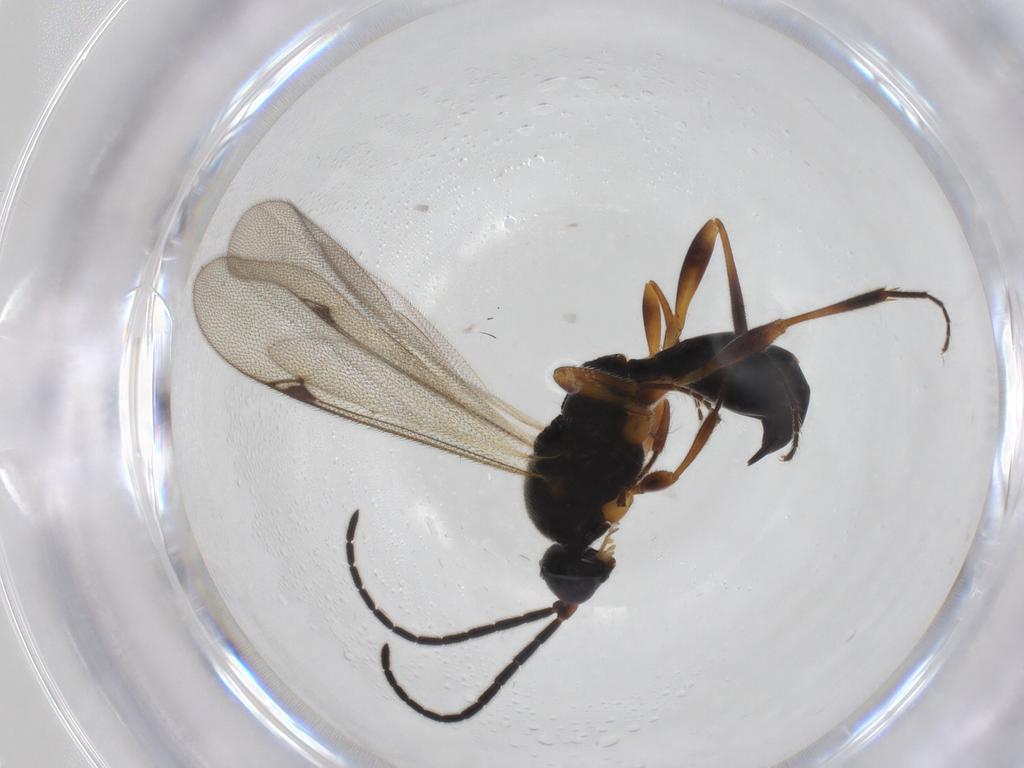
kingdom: Animalia
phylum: Arthropoda
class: Insecta
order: Hymenoptera
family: Proctotrupidae
